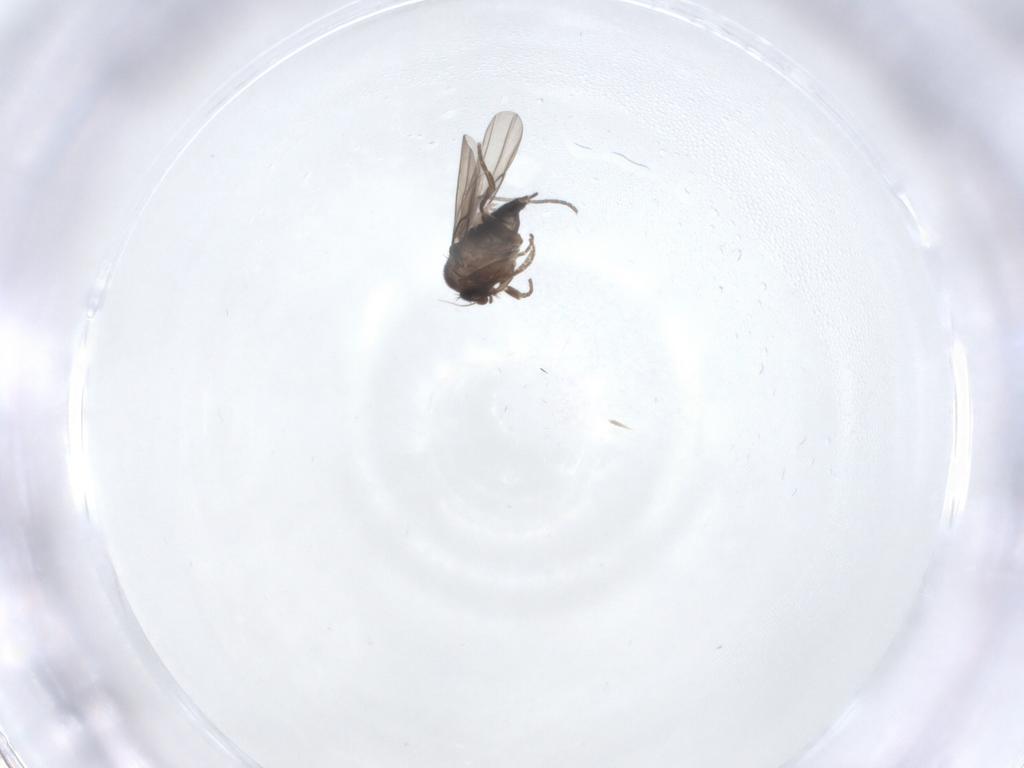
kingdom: Animalia
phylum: Arthropoda
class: Insecta
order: Diptera
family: Sciaridae
